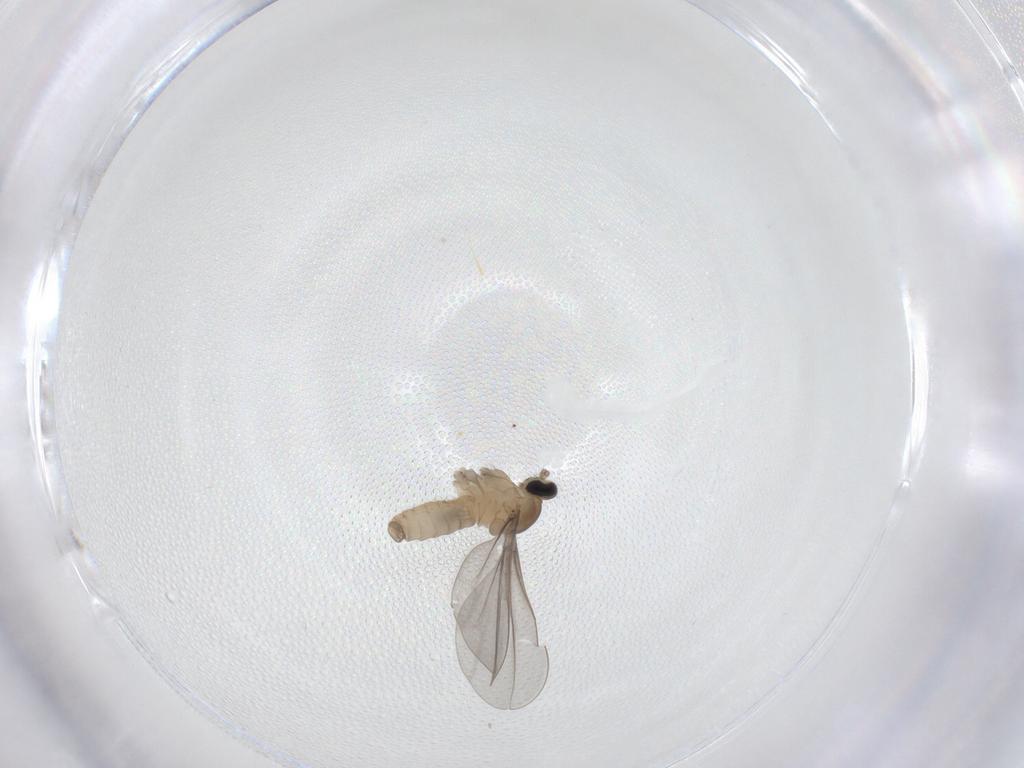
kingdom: Animalia
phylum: Arthropoda
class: Insecta
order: Diptera
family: Cecidomyiidae
